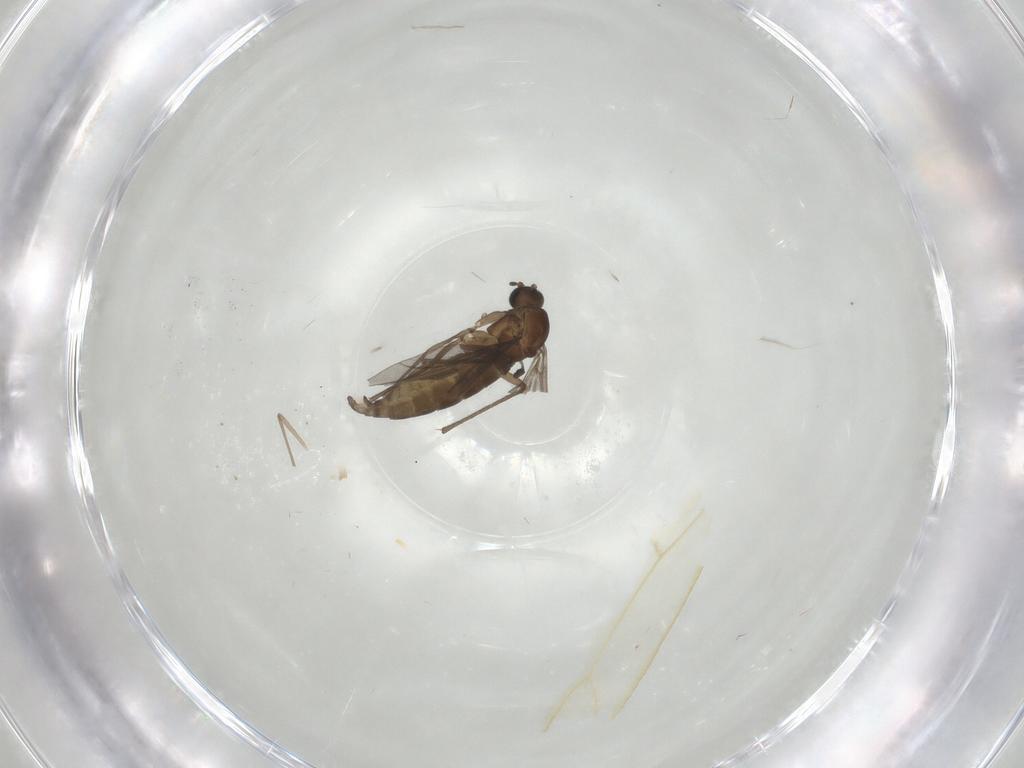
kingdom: Animalia
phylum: Arthropoda
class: Insecta
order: Diptera
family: Sciaridae
